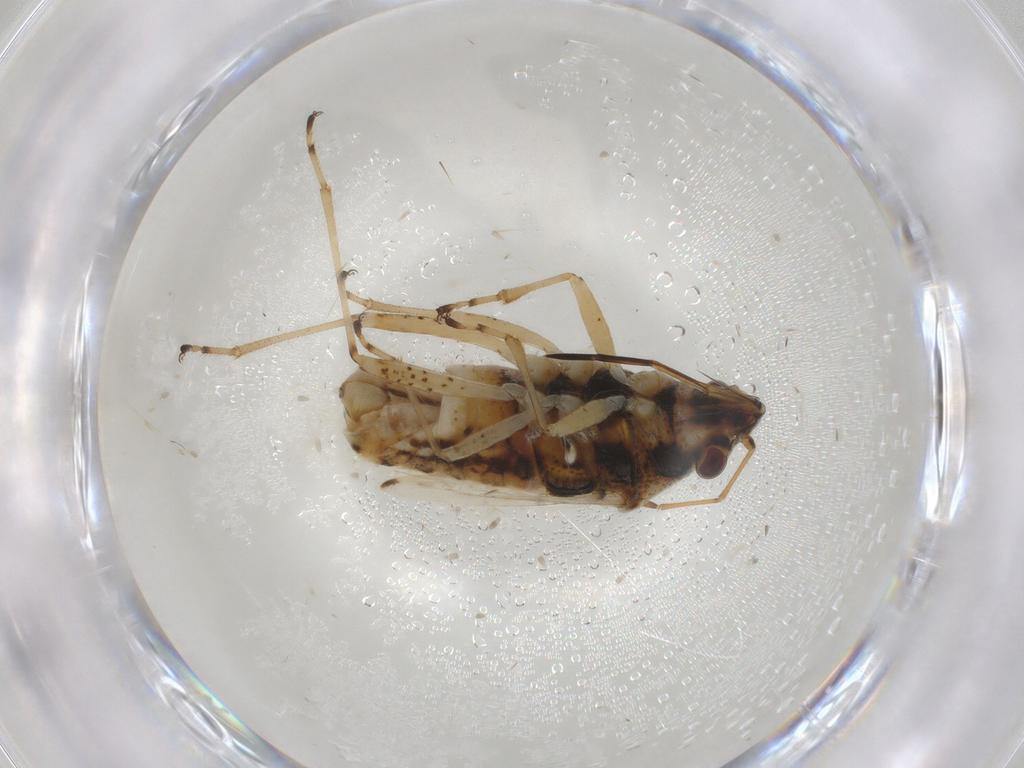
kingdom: Animalia
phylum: Arthropoda
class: Insecta
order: Hemiptera
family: Lygaeidae
